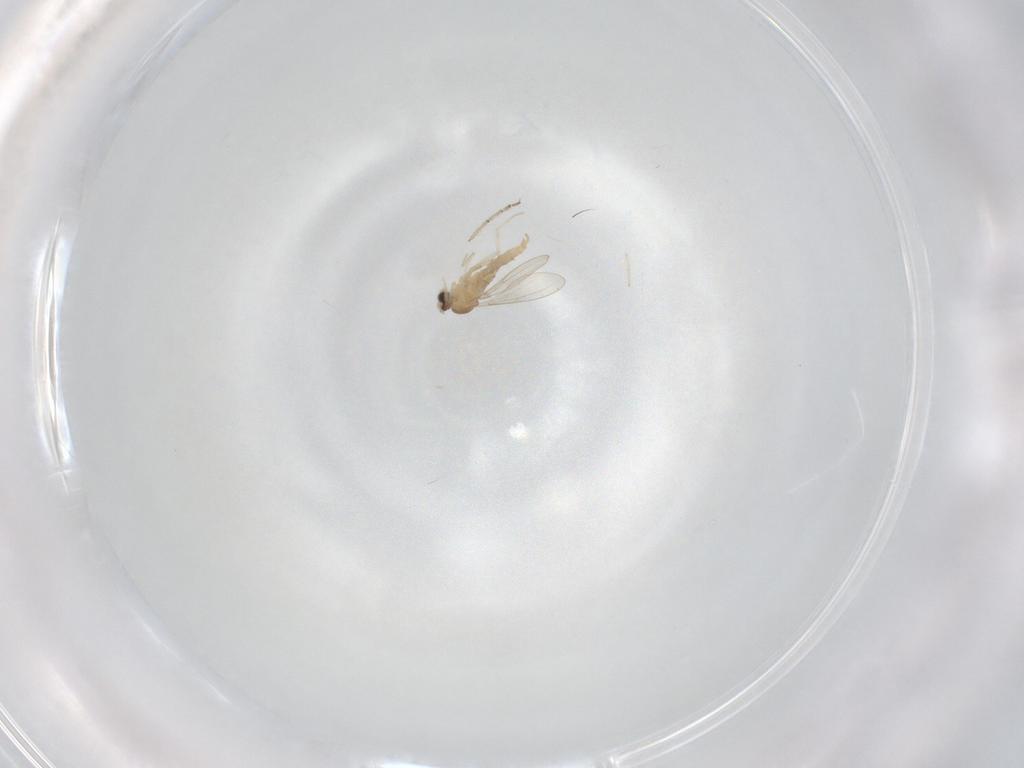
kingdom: Animalia
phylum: Arthropoda
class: Insecta
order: Diptera
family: Cecidomyiidae
